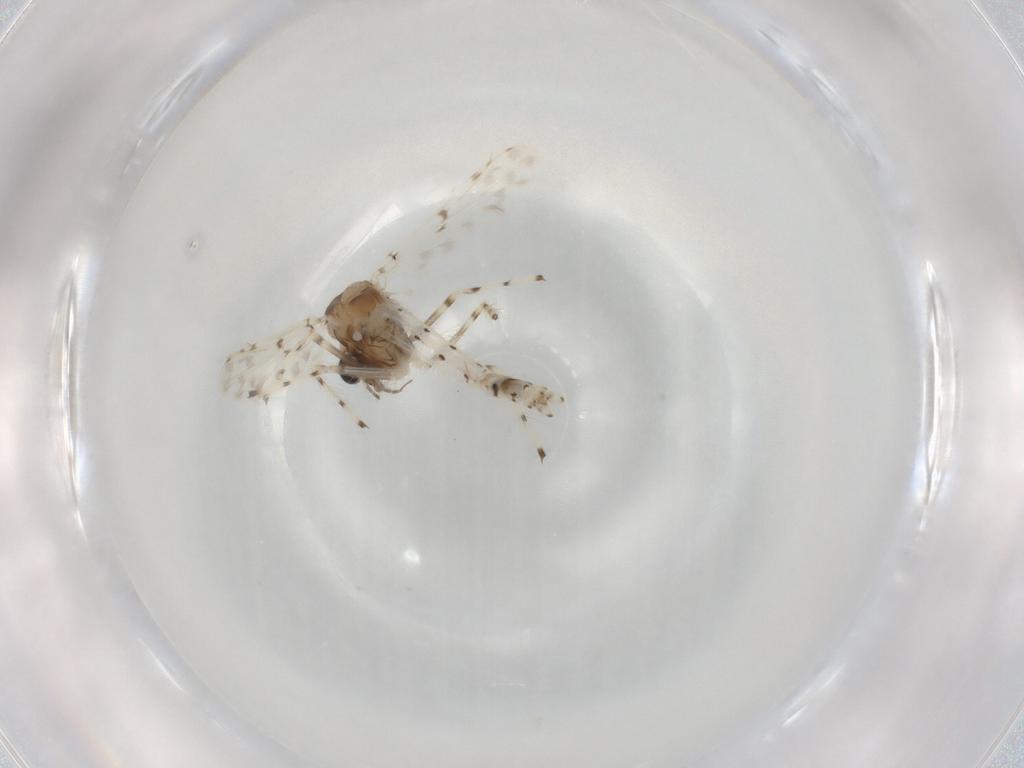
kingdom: Animalia
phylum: Arthropoda
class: Insecta
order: Diptera
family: Chironomidae
